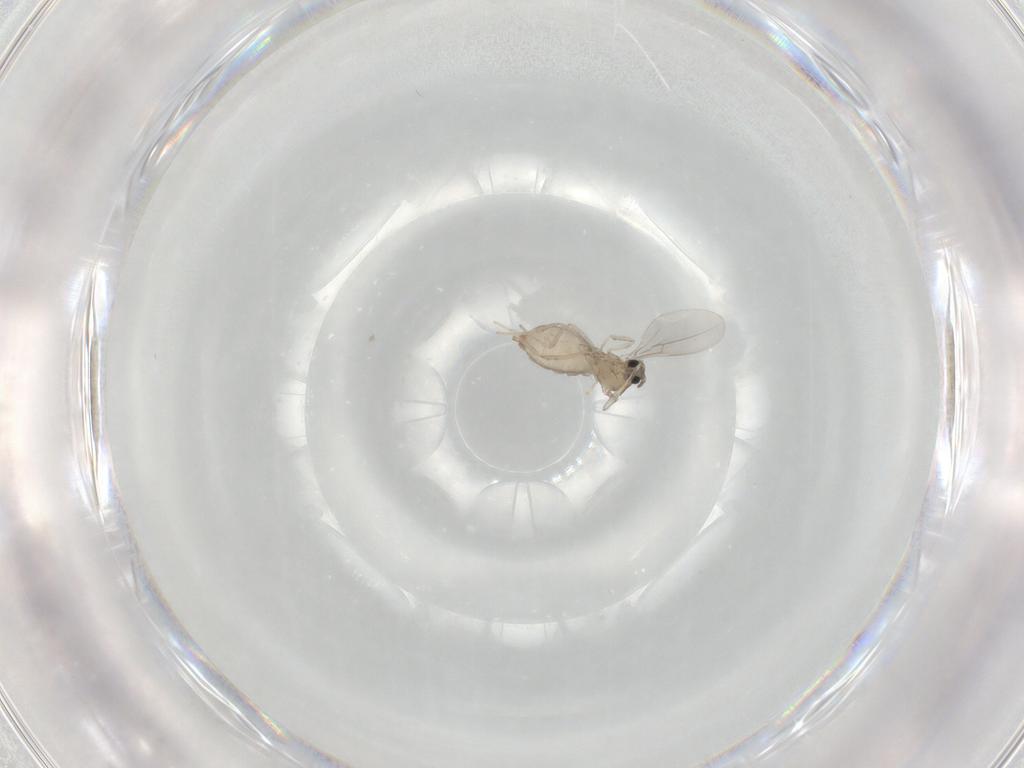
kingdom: Animalia
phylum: Arthropoda
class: Insecta
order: Diptera
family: Cecidomyiidae
